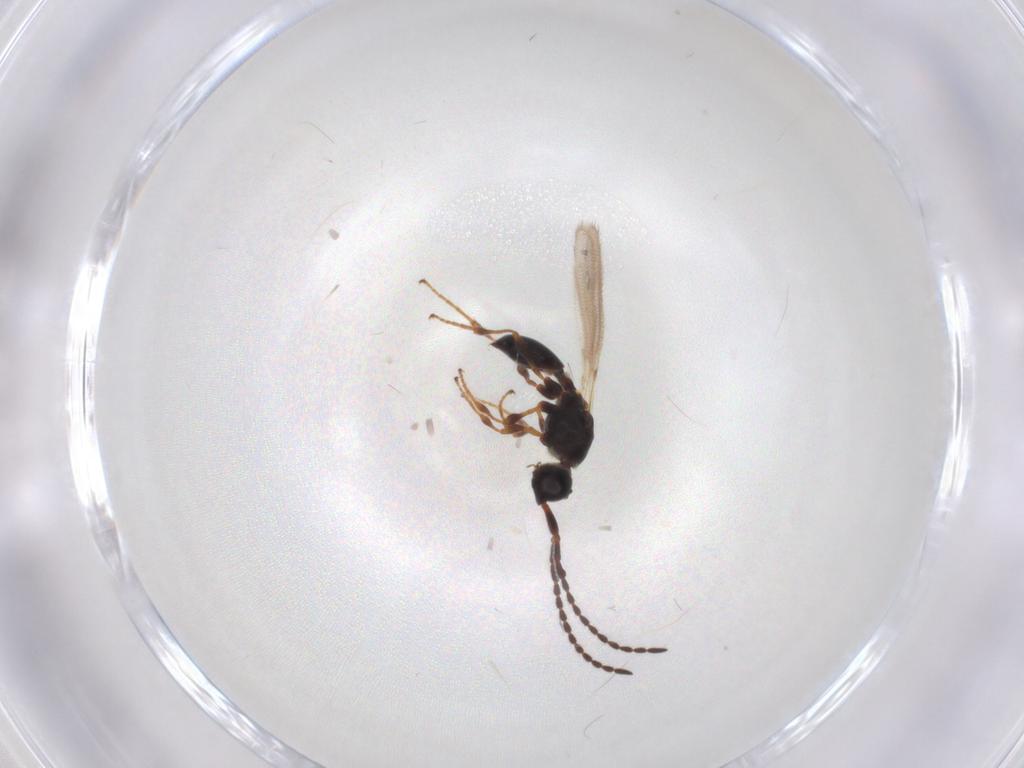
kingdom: Animalia
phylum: Arthropoda
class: Insecta
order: Hymenoptera
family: Diapriidae
